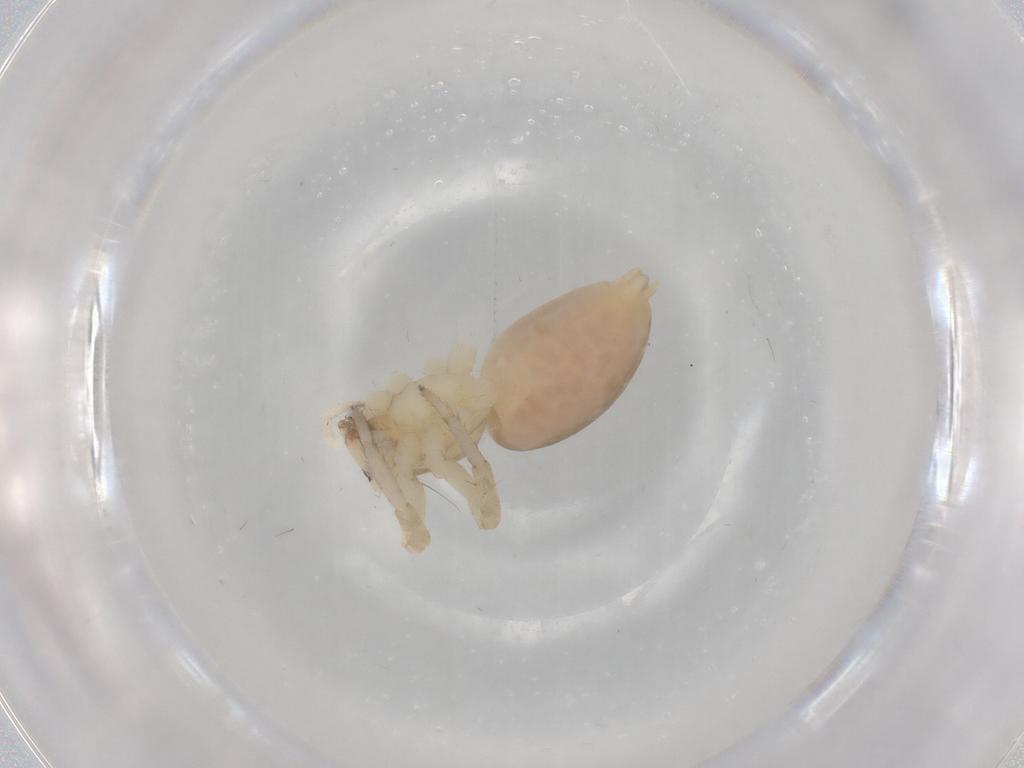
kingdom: Animalia
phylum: Arthropoda
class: Arachnida
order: Araneae
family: Anyphaenidae
